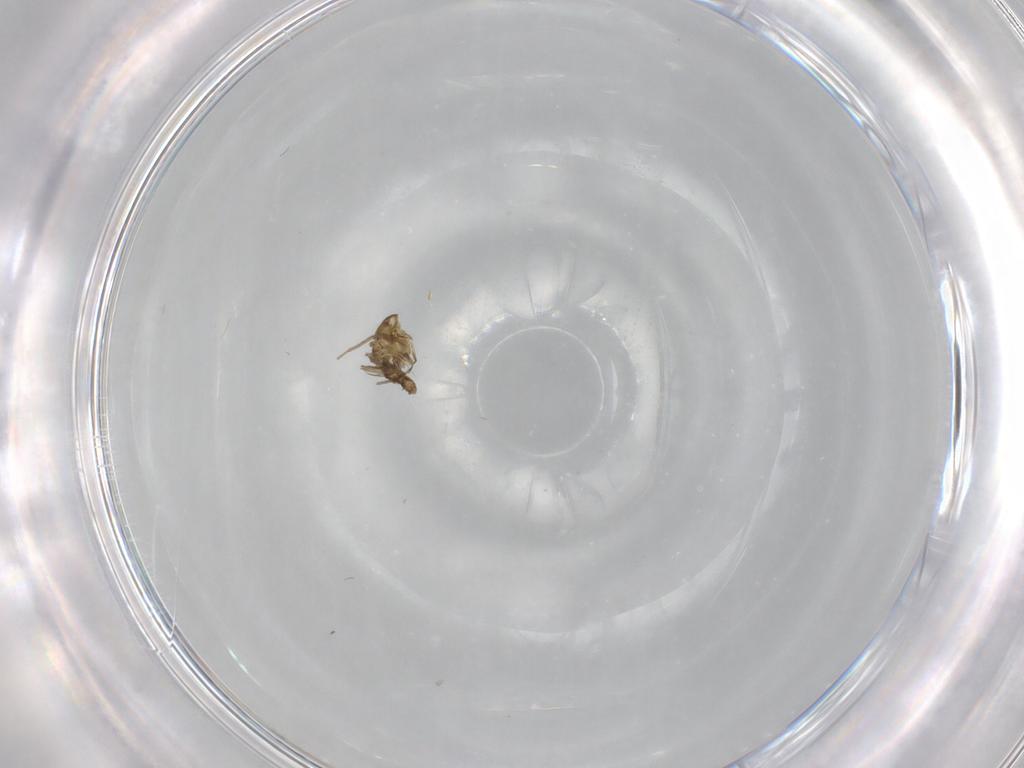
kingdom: Animalia
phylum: Arthropoda
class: Insecta
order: Diptera
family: Chironomidae
